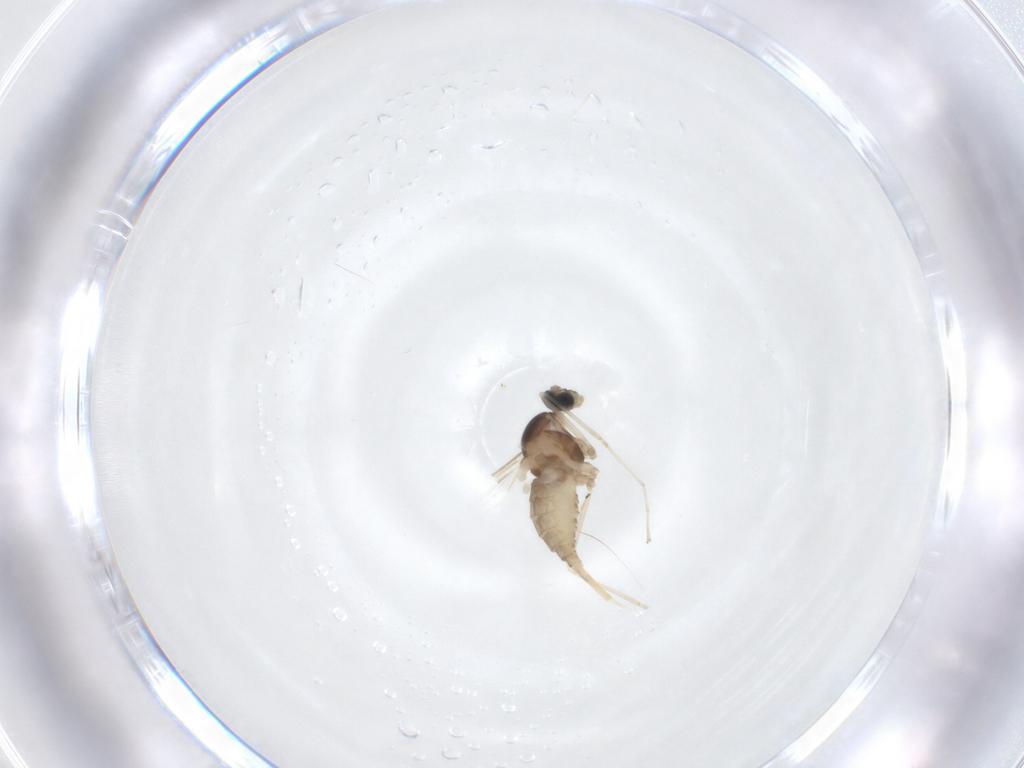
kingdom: Animalia
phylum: Arthropoda
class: Insecta
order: Diptera
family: Cecidomyiidae
